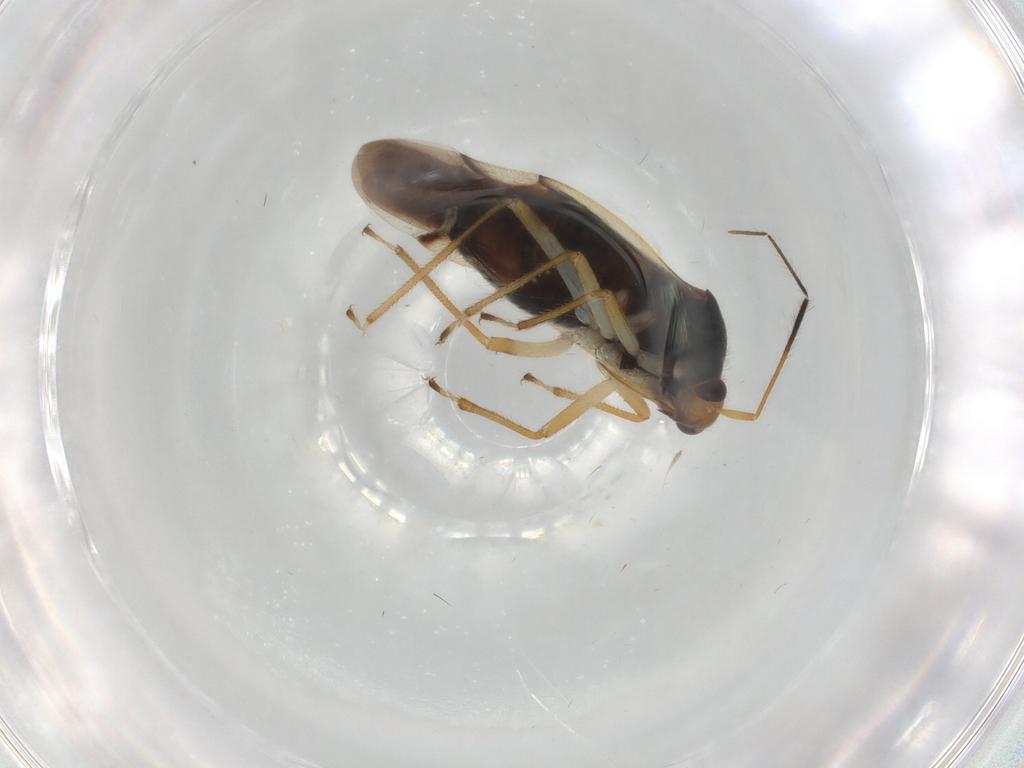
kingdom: Animalia
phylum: Arthropoda
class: Insecta
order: Hemiptera
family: Miridae
